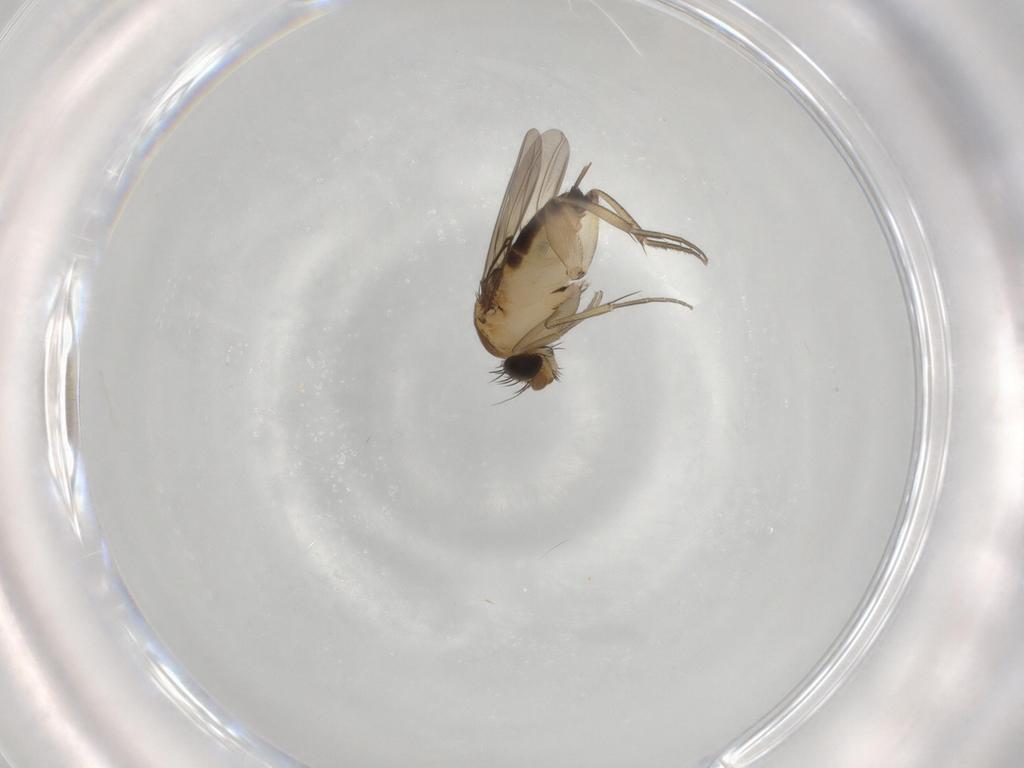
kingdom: Animalia
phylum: Arthropoda
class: Insecta
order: Diptera
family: Phoridae
